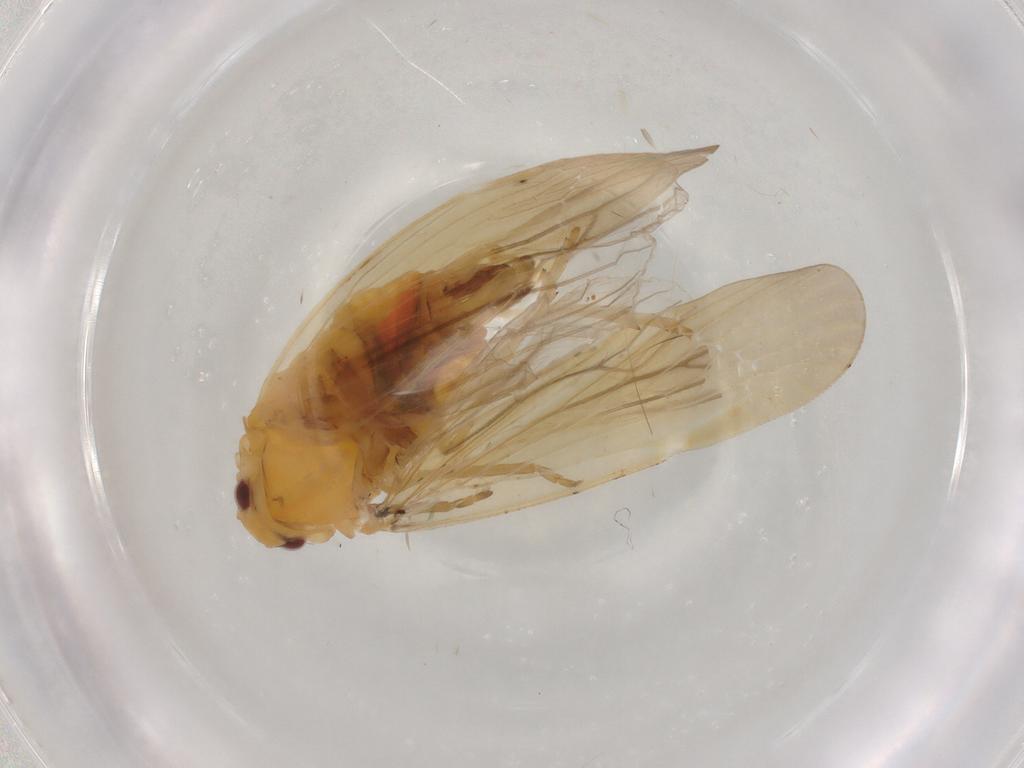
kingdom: Animalia
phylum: Arthropoda
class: Insecta
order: Hemiptera
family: Derbidae
